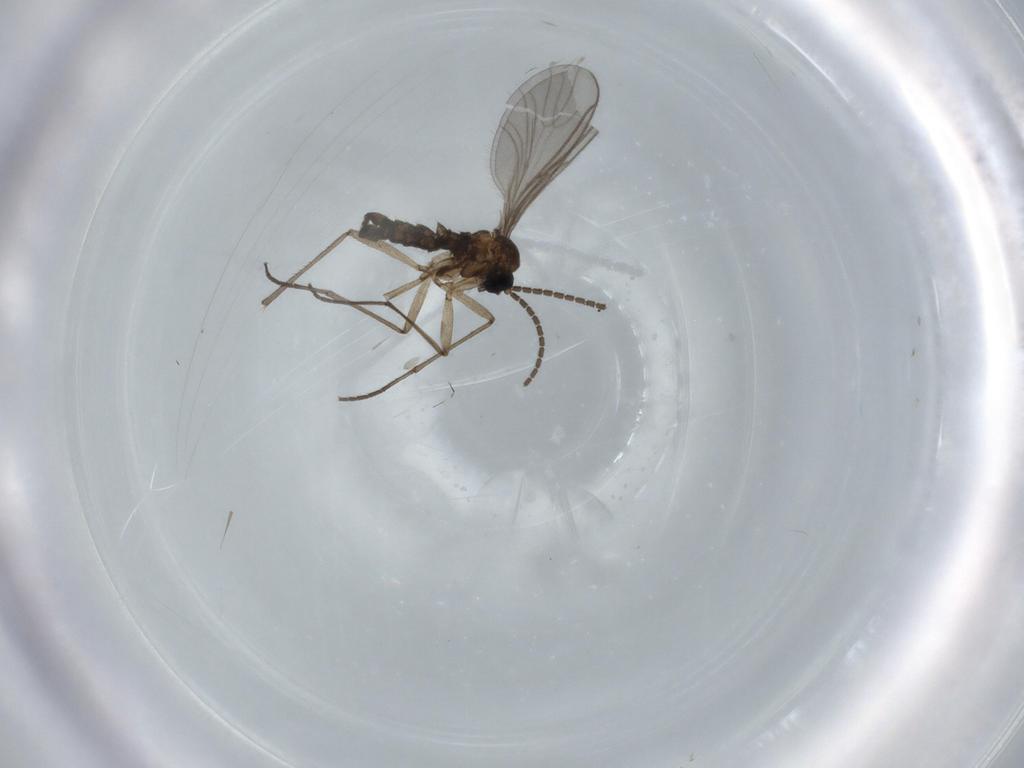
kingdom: Animalia
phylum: Arthropoda
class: Insecta
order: Diptera
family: Sciaridae
